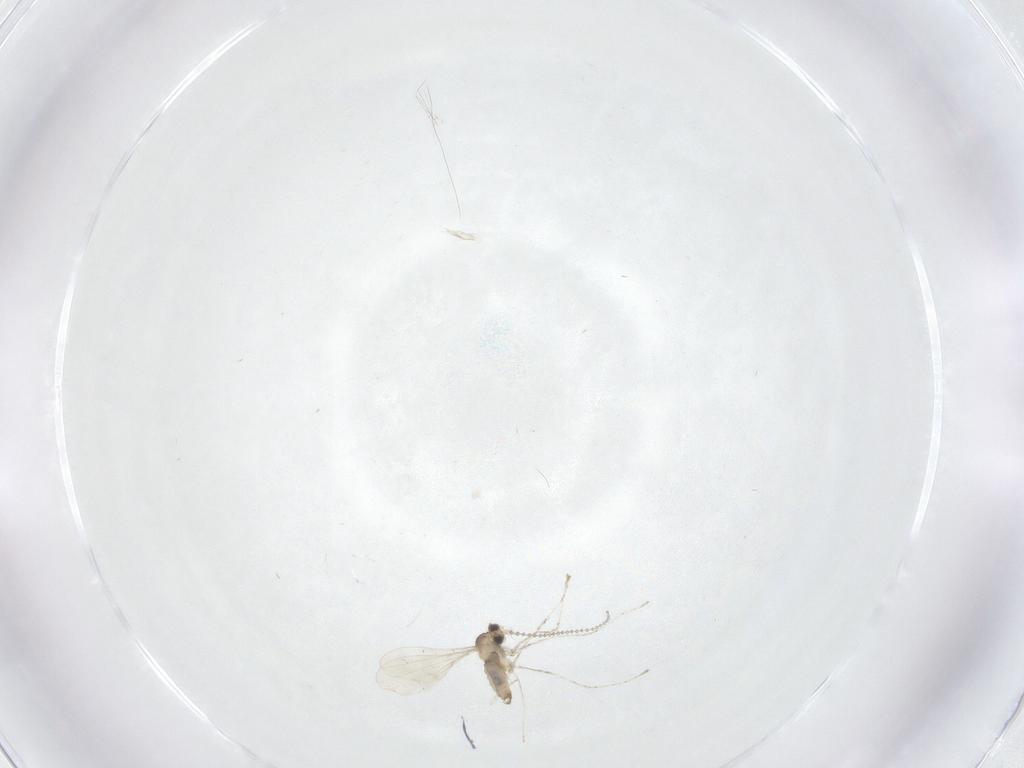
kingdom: Animalia
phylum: Arthropoda
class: Insecta
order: Diptera
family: Cecidomyiidae
